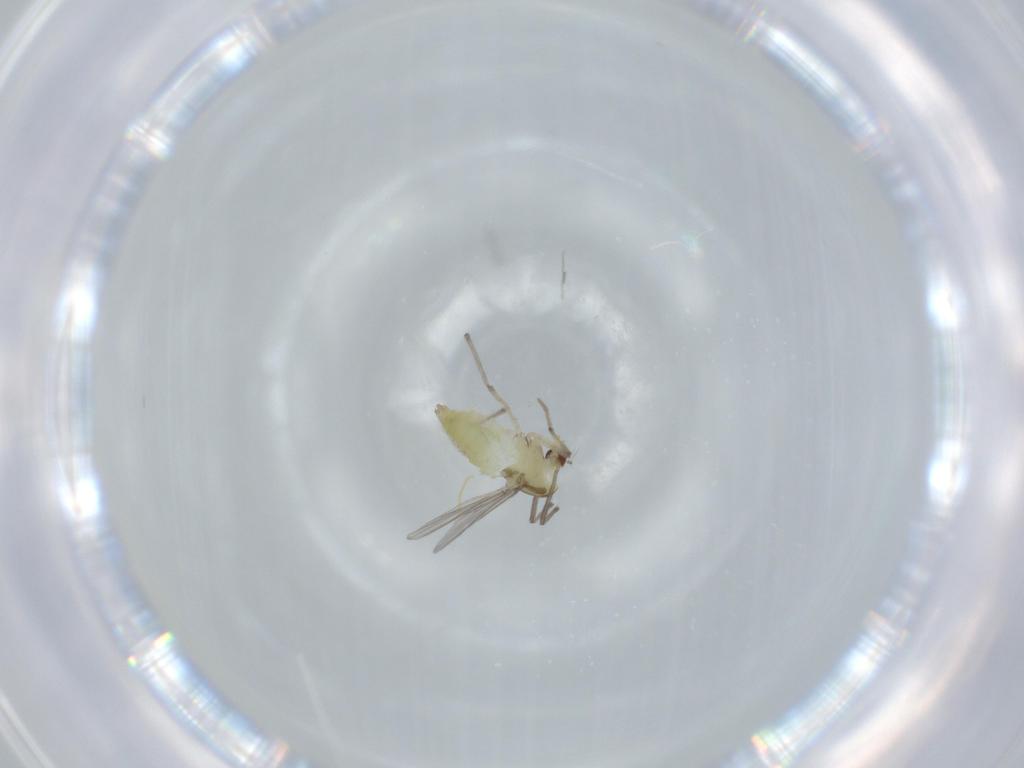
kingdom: Animalia
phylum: Arthropoda
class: Insecta
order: Diptera
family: Chironomidae
